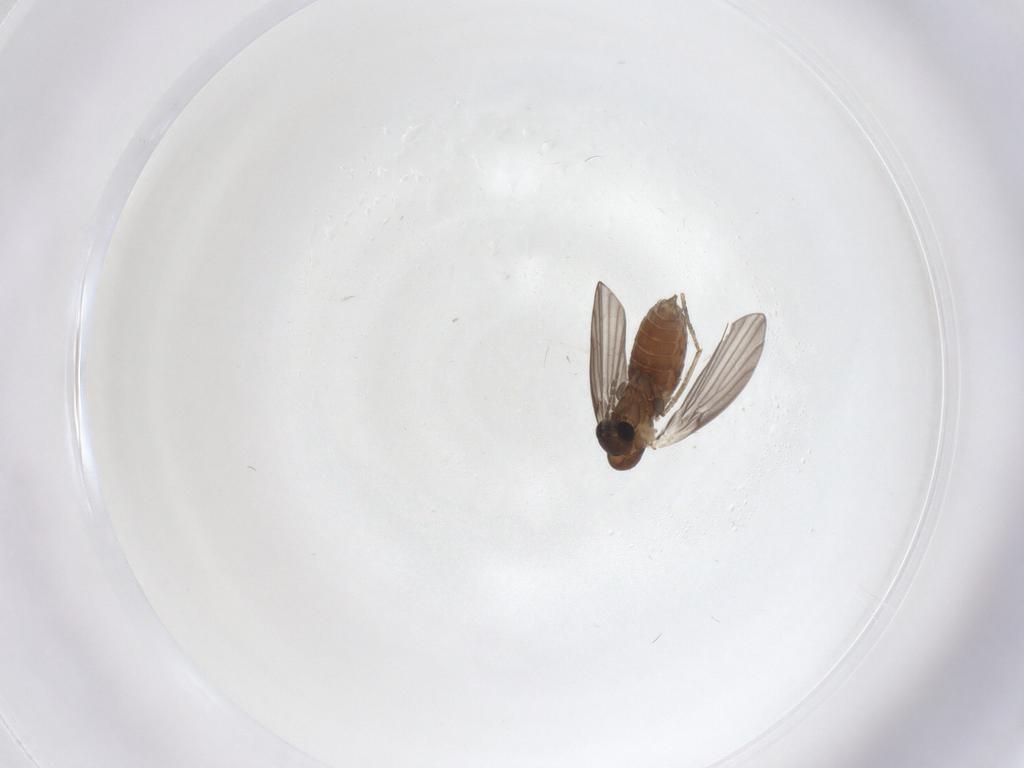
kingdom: Animalia
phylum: Arthropoda
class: Insecta
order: Diptera
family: Psychodidae
